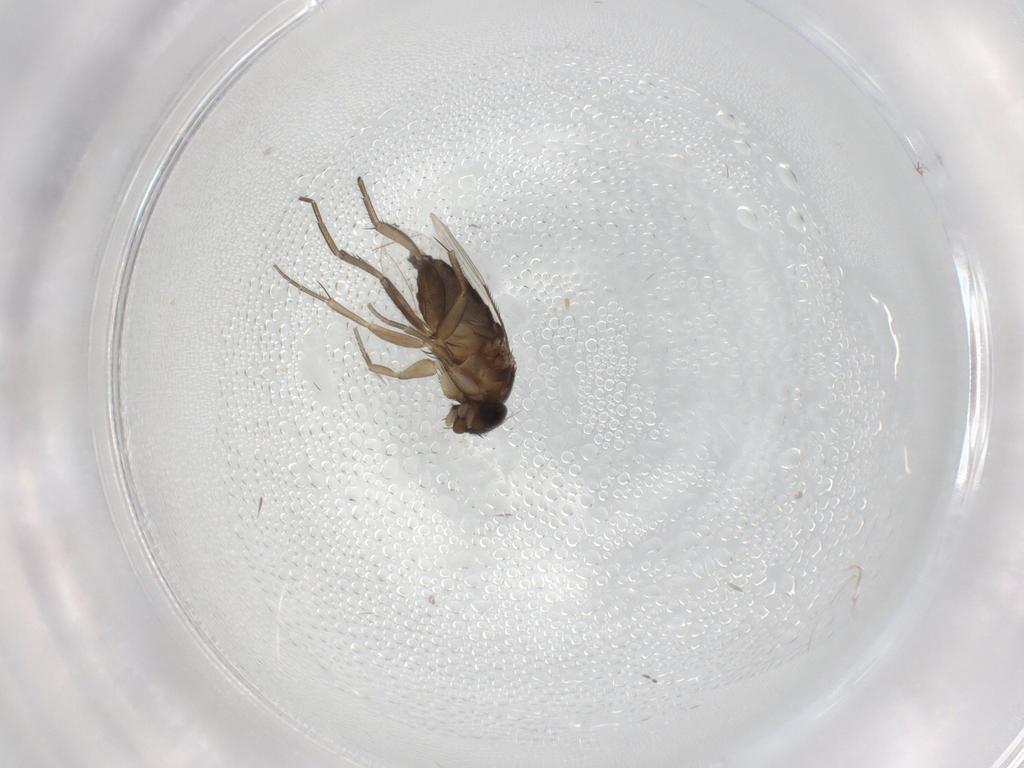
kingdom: Animalia
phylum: Arthropoda
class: Insecta
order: Diptera
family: Phoridae
